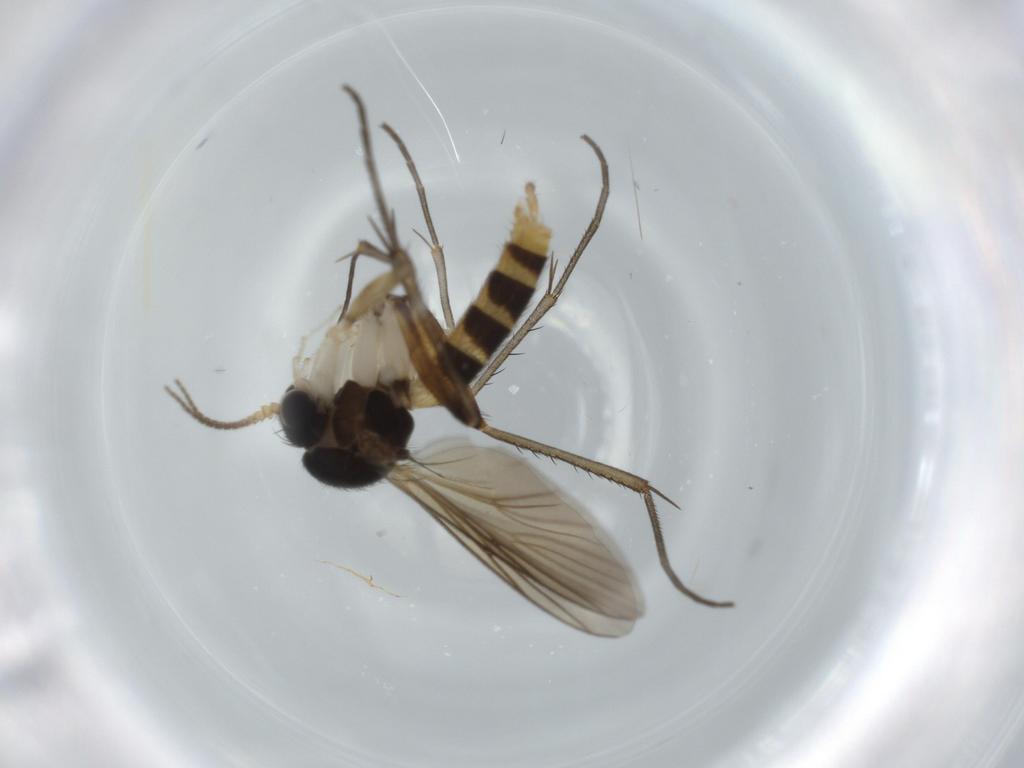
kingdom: Animalia
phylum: Arthropoda
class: Insecta
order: Diptera
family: Mycetophilidae
